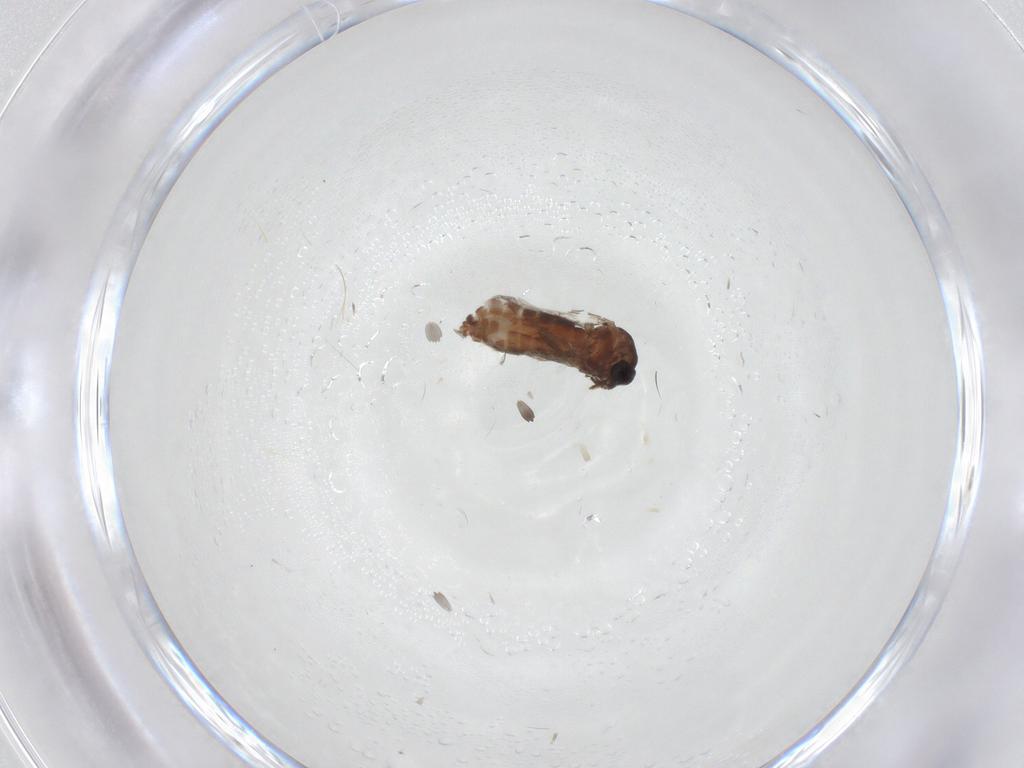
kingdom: Animalia
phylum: Arthropoda
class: Insecta
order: Diptera
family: Ceratopogonidae
